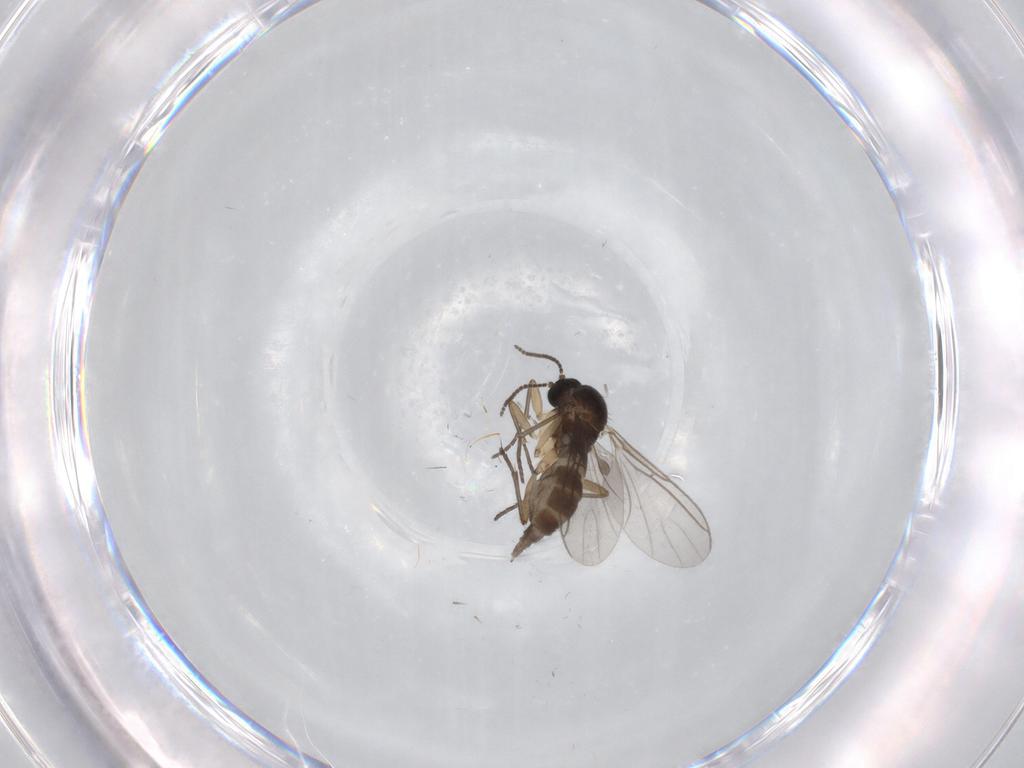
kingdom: Animalia
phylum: Arthropoda
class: Insecta
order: Diptera
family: Sciaridae
